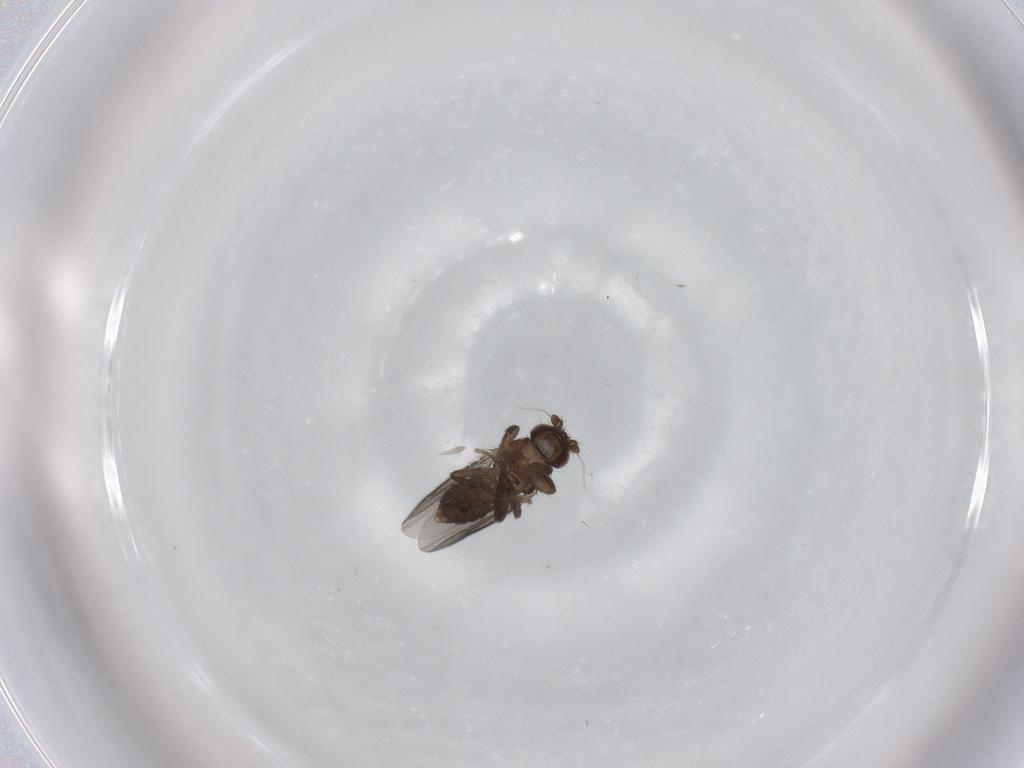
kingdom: Animalia
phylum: Arthropoda
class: Insecta
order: Diptera
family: Sphaeroceridae
